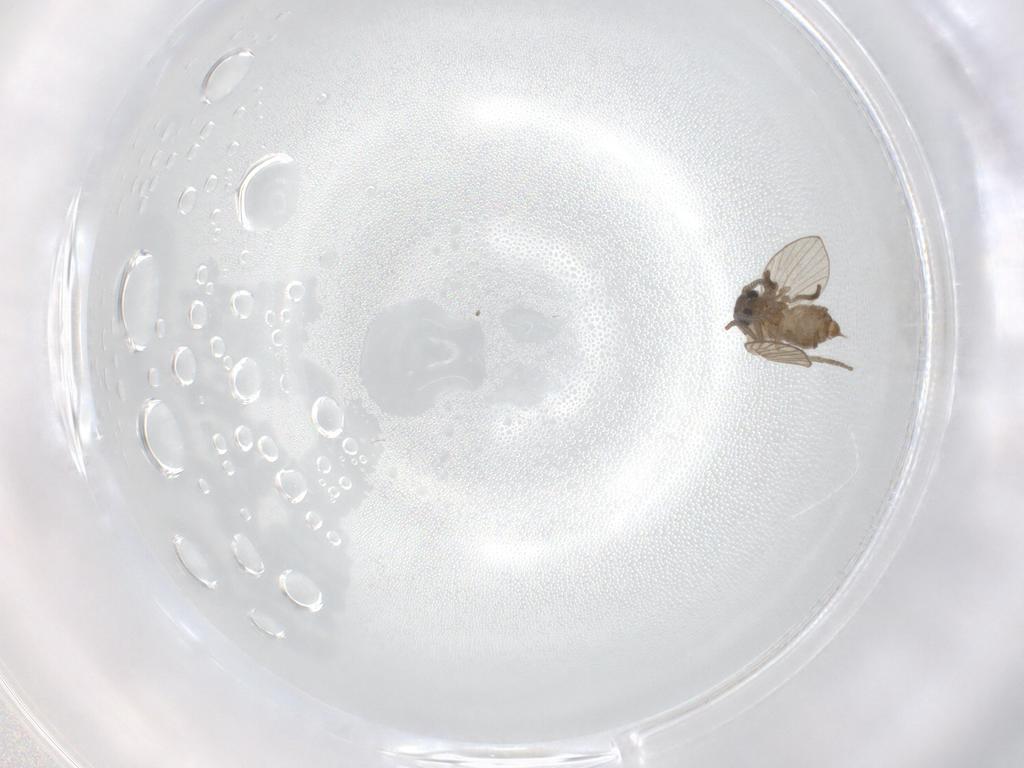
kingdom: Animalia
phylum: Arthropoda
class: Insecta
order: Diptera
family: Psychodidae
